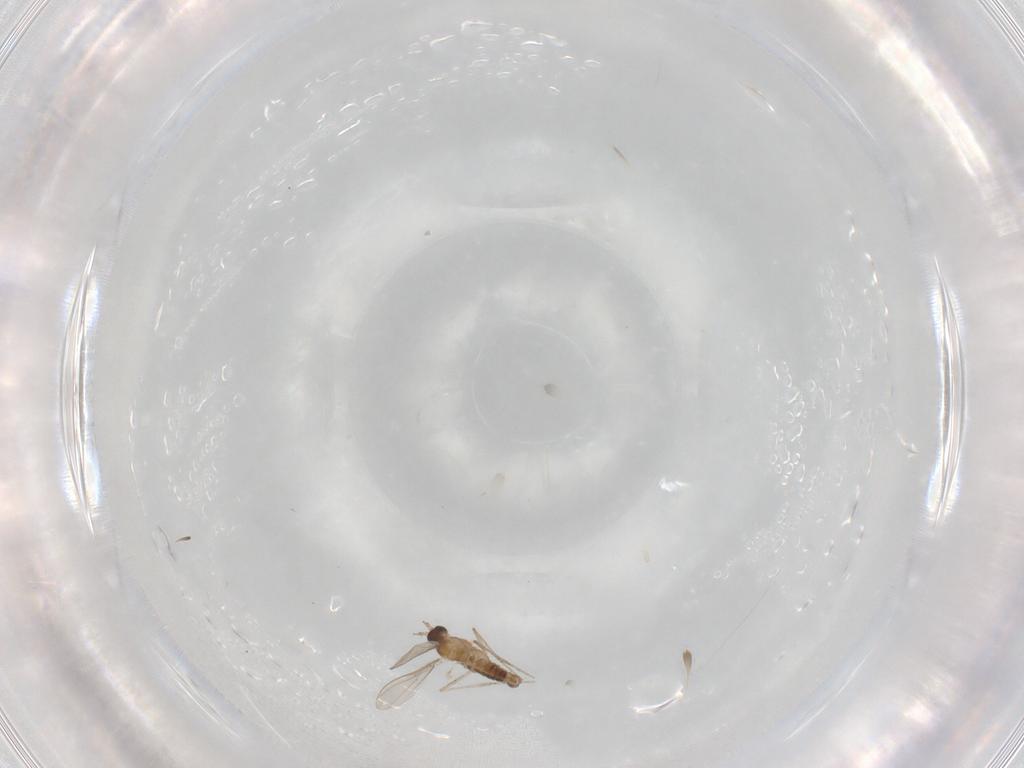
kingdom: Animalia
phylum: Arthropoda
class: Insecta
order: Diptera
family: Cecidomyiidae
